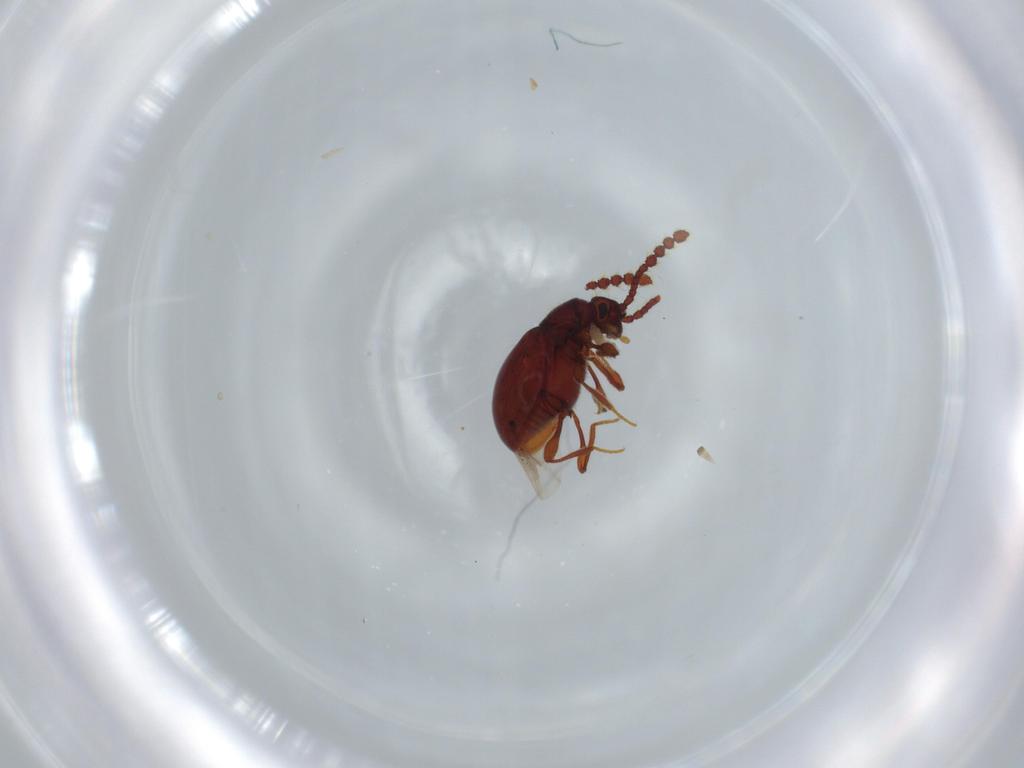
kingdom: Animalia
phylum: Arthropoda
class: Insecta
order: Coleoptera
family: Staphylinidae
